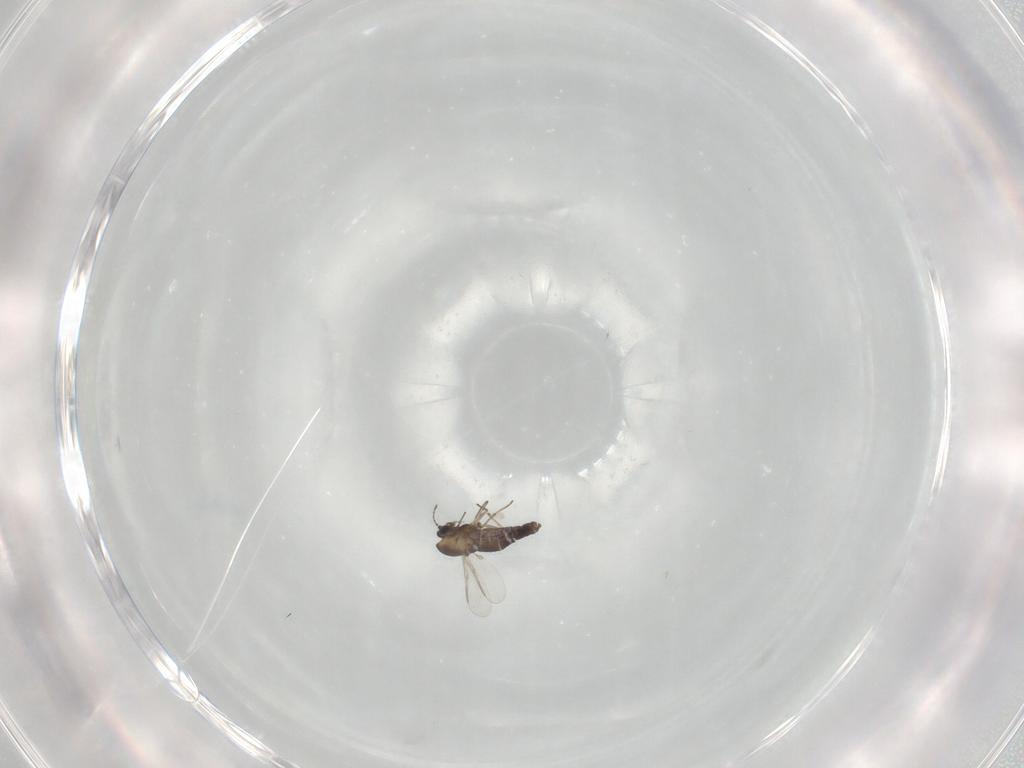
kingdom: Animalia
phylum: Arthropoda
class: Insecta
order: Diptera
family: Chironomidae
